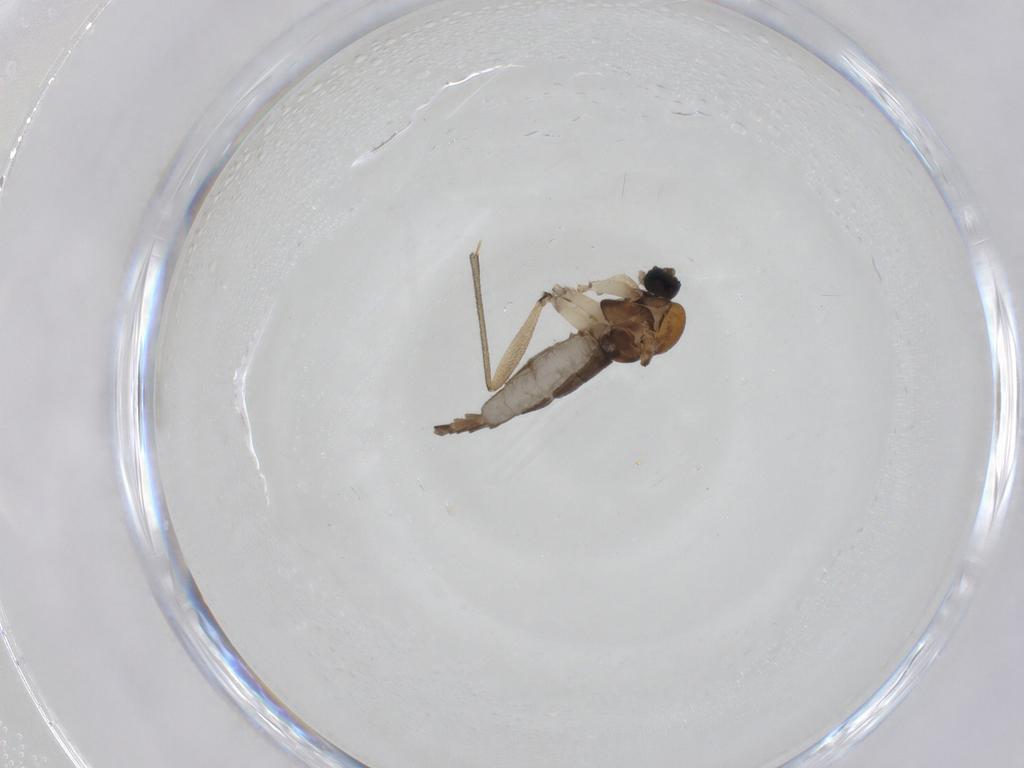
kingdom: Animalia
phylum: Arthropoda
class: Insecta
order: Diptera
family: Sciaridae
